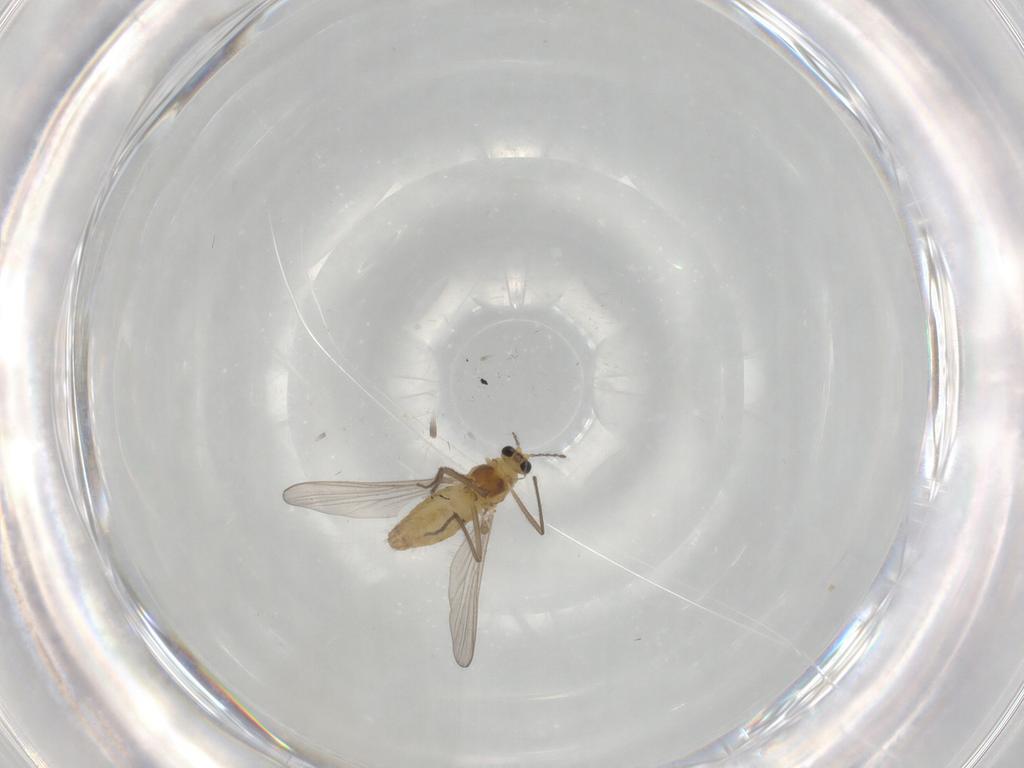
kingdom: Animalia
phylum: Arthropoda
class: Insecta
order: Diptera
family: Chironomidae
